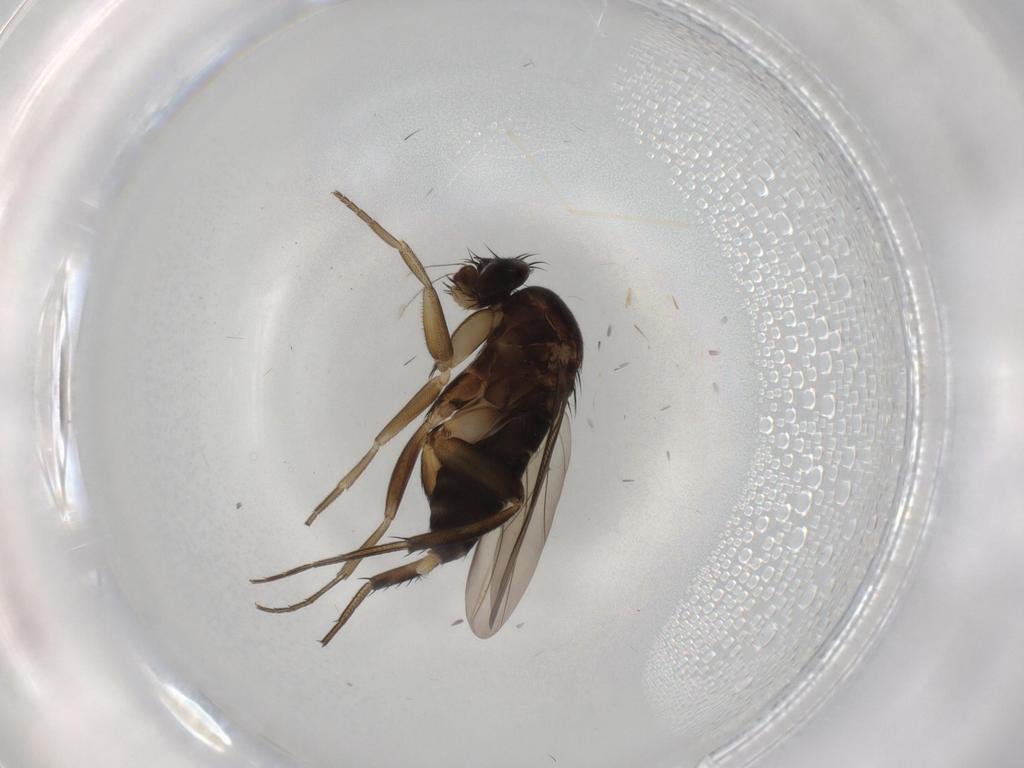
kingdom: Animalia
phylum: Arthropoda
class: Insecta
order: Diptera
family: Phoridae
